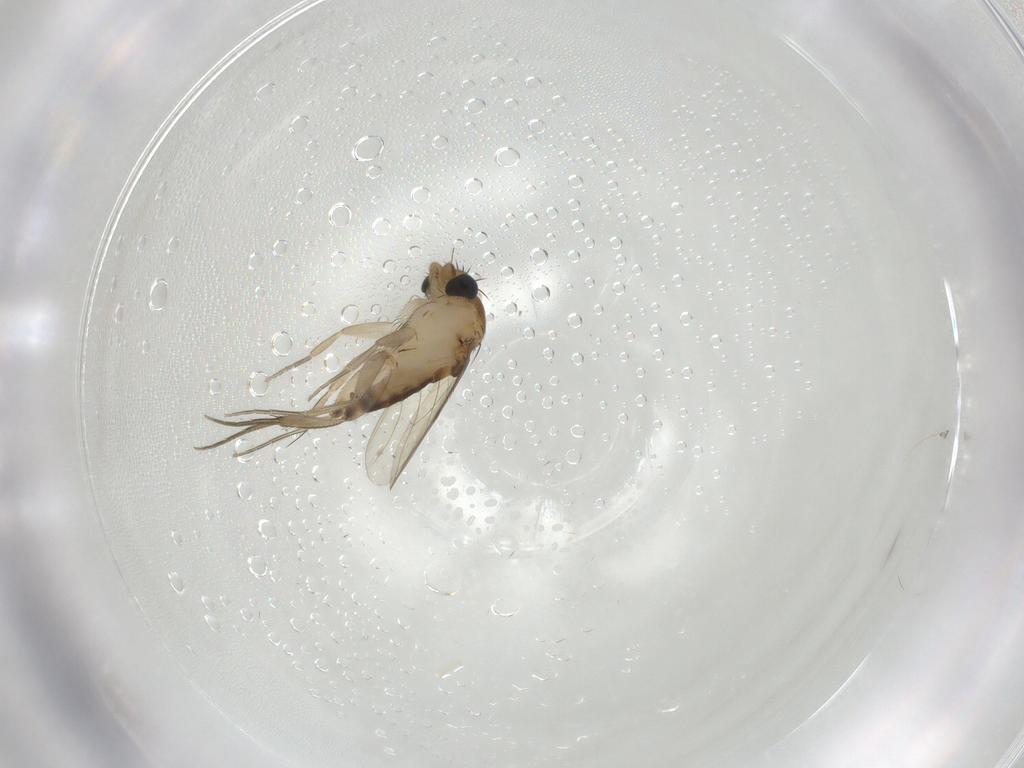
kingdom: Animalia
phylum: Arthropoda
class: Insecta
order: Diptera
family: Phoridae
